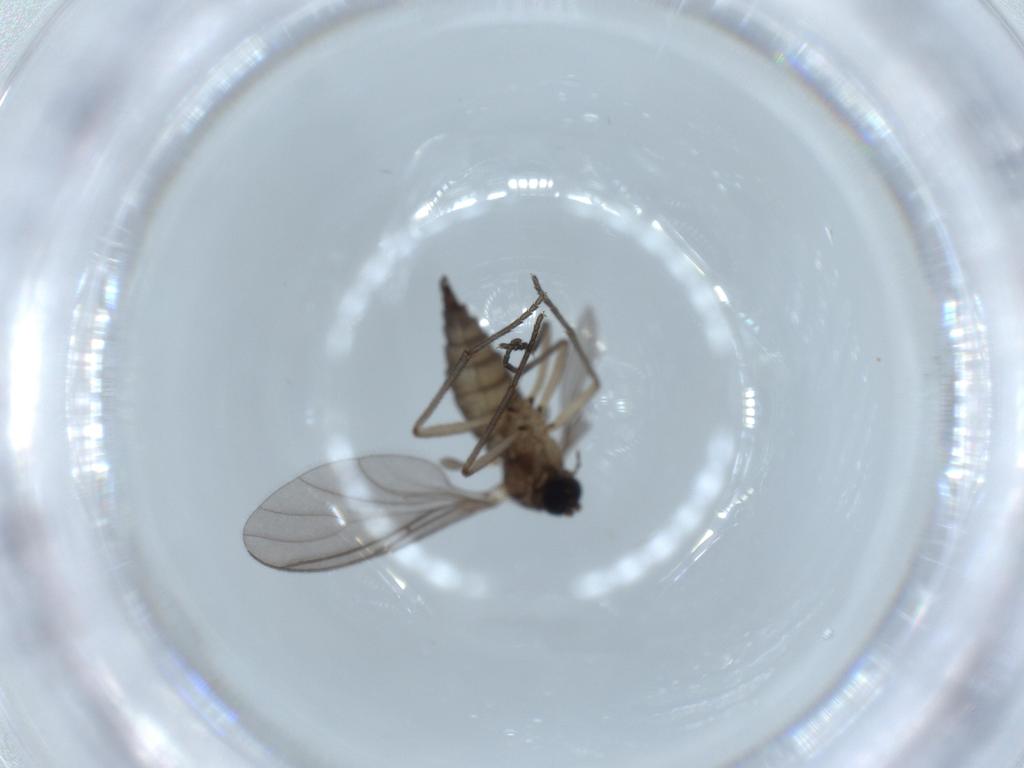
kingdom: Animalia
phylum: Arthropoda
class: Insecta
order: Diptera
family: Sciaridae
